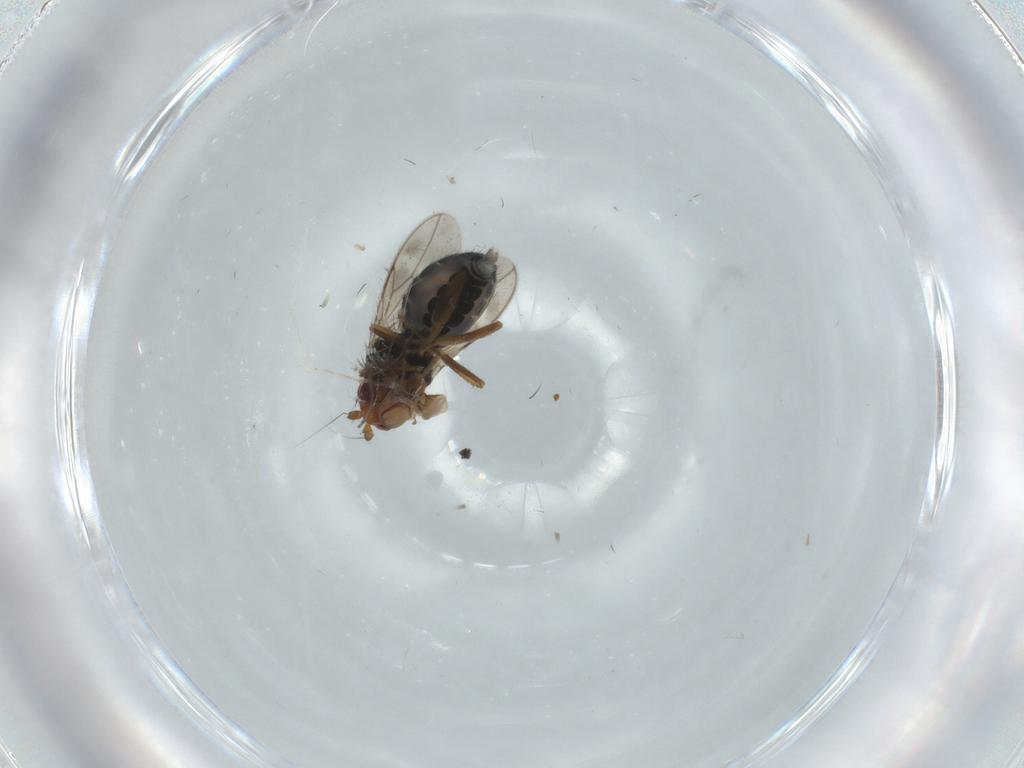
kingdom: Animalia
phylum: Arthropoda
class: Insecta
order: Diptera
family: Sphaeroceridae
